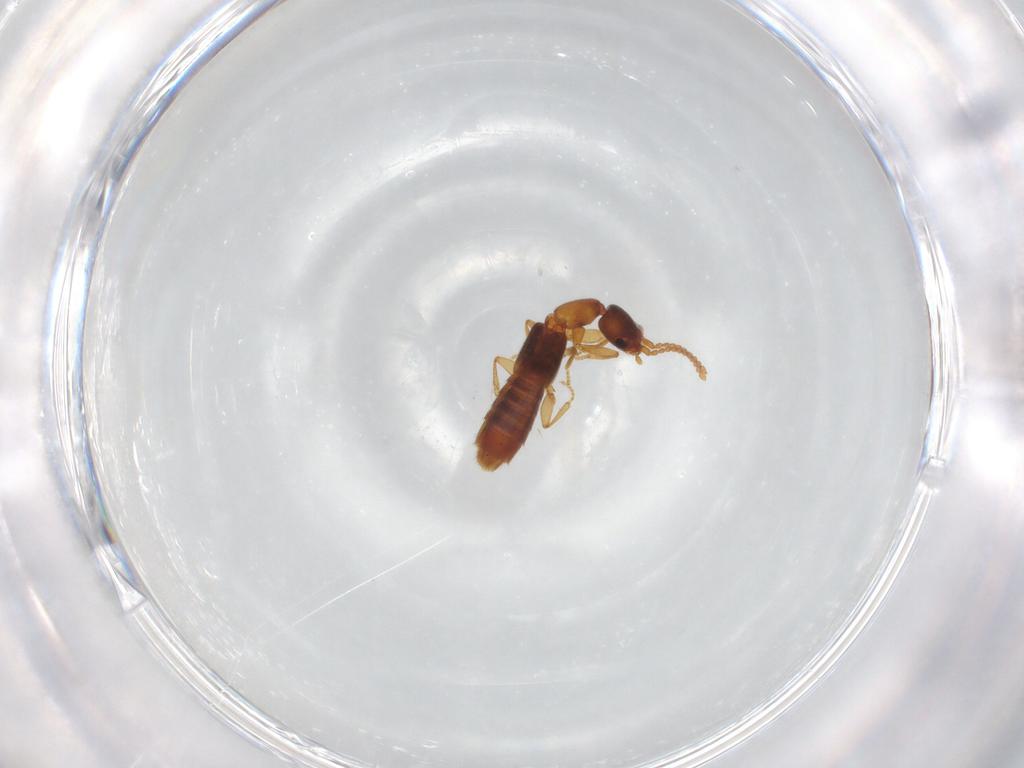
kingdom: Animalia
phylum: Arthropoda
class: Insecta
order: Coleoptera
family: Staphylinidae
